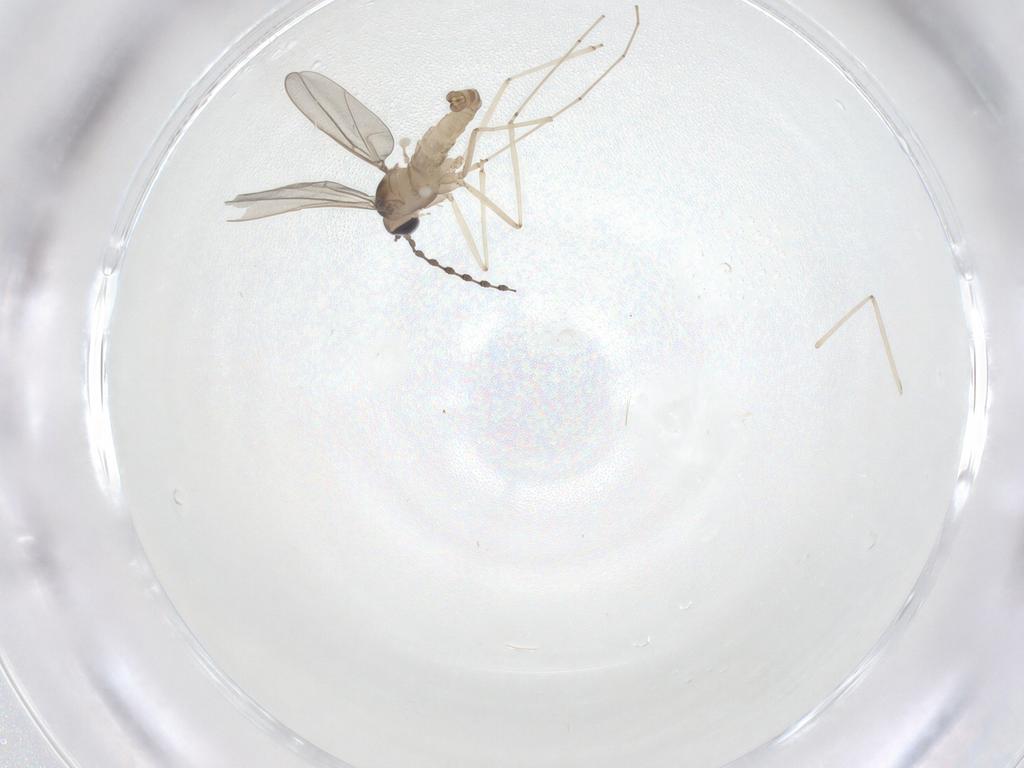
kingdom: Animalia
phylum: Arthropoda
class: Insecta
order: Diptera
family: Cecidomyiidae
